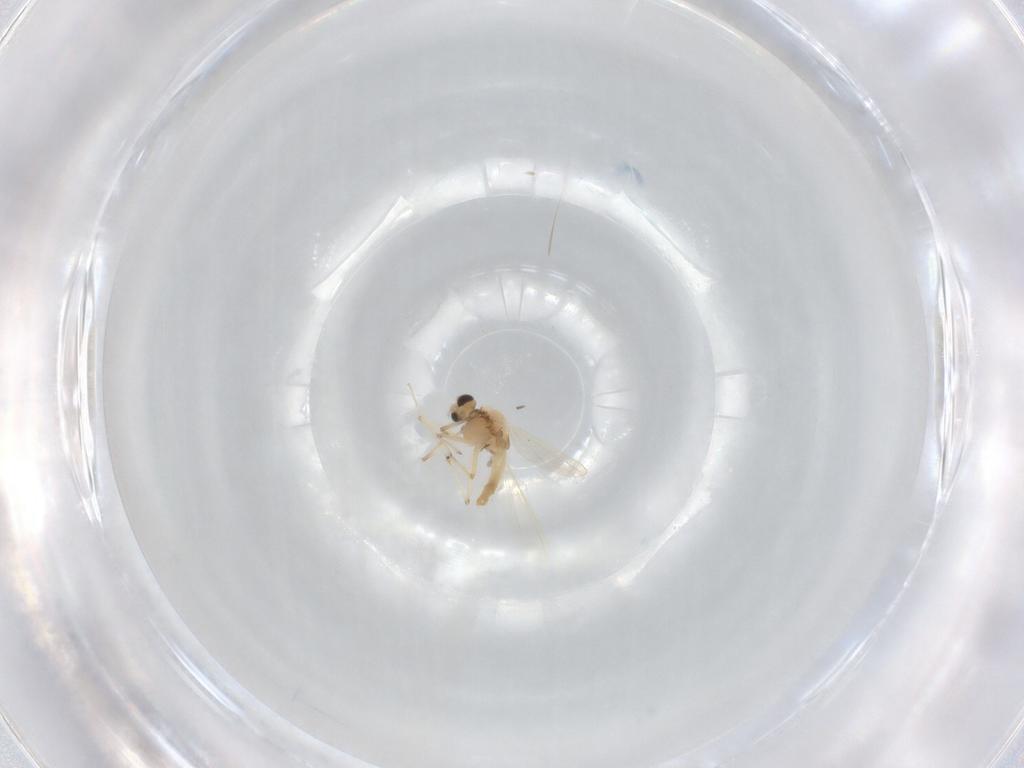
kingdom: Animalia
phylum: Arthropoda
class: Insecta
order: Diptera
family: Chironomidae
